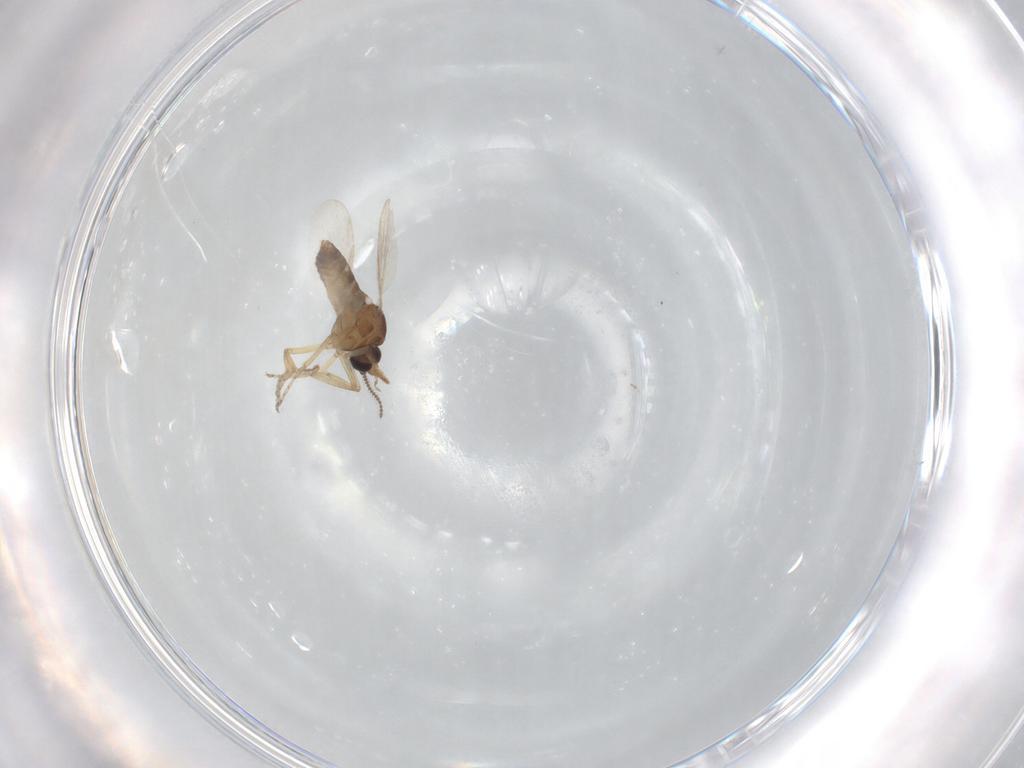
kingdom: Animalia
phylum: Arthropoda
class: Insecta
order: Diptera
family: Ceratopogonidae
